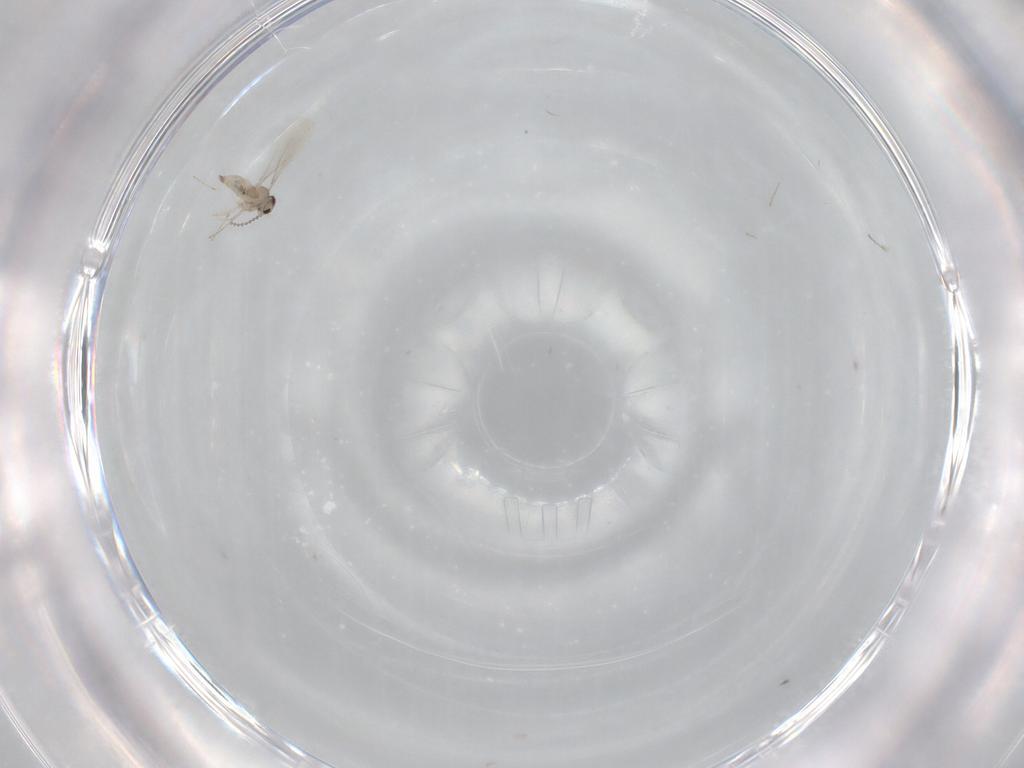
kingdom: Animalia
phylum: Arthropoda
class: Insecta
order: Diptera
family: Cecidomyiidae
